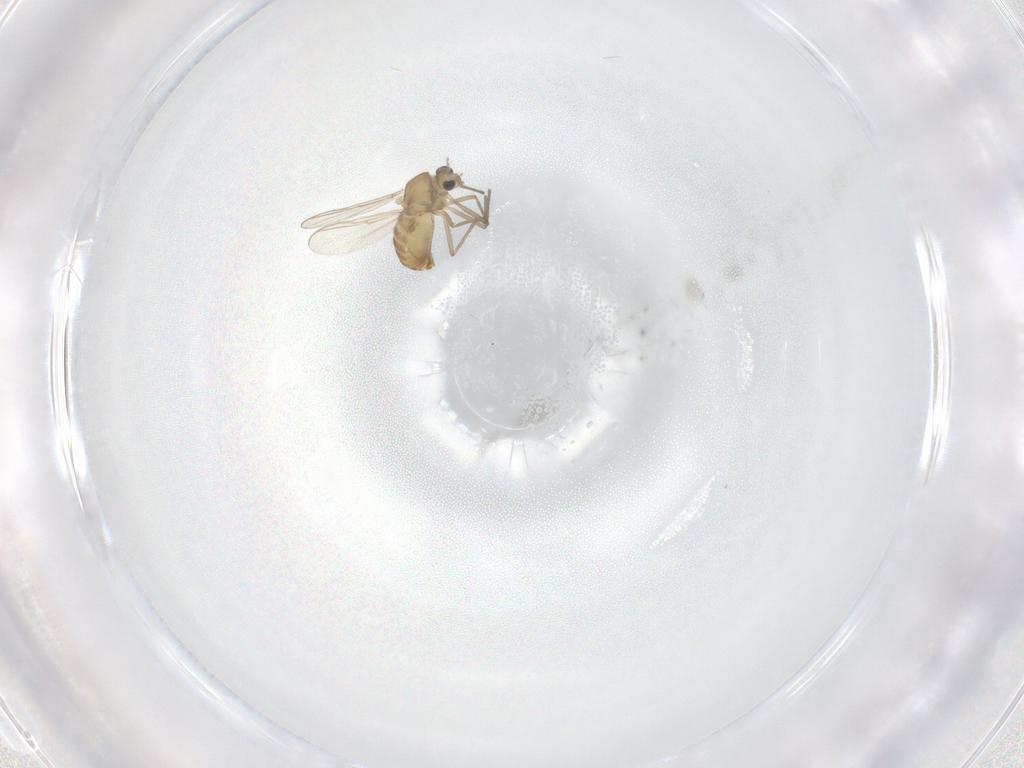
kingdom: Animalia
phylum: Arthropoda
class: Insecta
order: Diptera
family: Chironomidae
